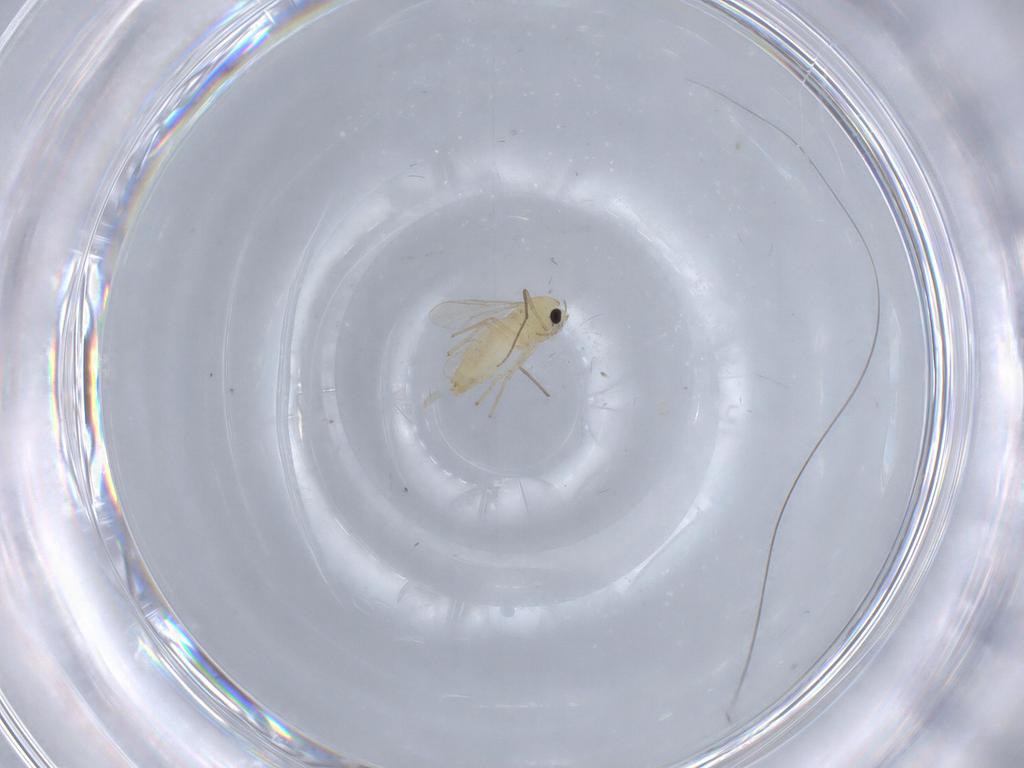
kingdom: Animalia
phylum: Arthropoda
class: Insecta
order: Diptera
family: Chironomidae
